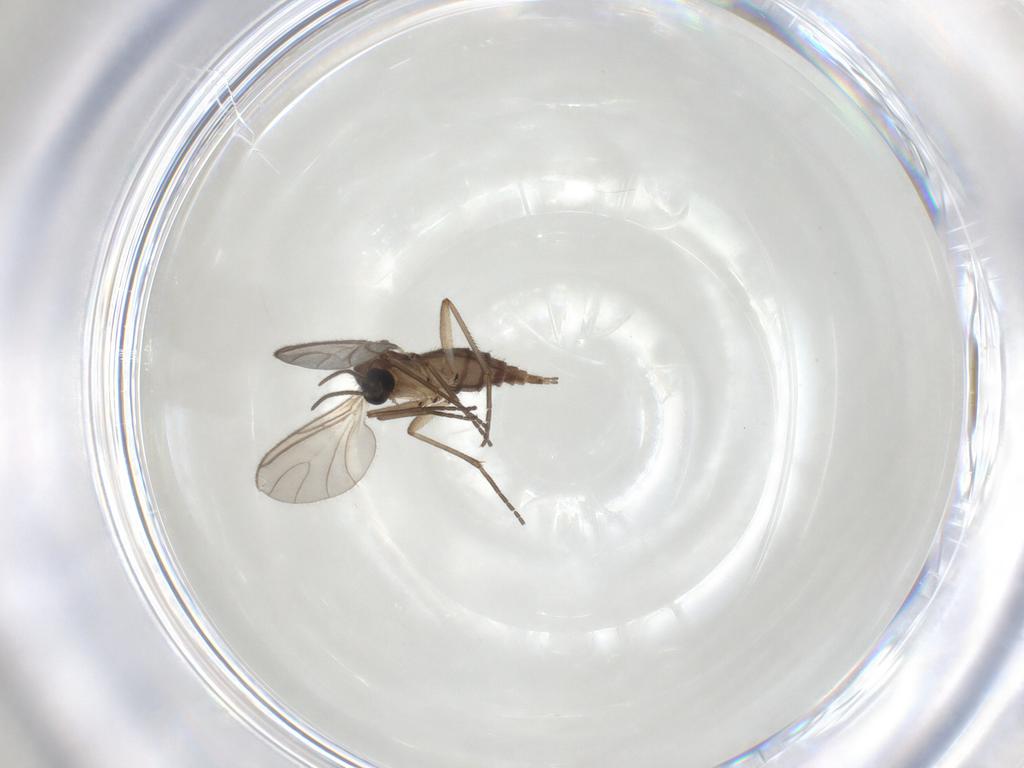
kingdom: Animalia
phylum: Arthropoda
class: Insecta
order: Diptera
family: Sciaridae
